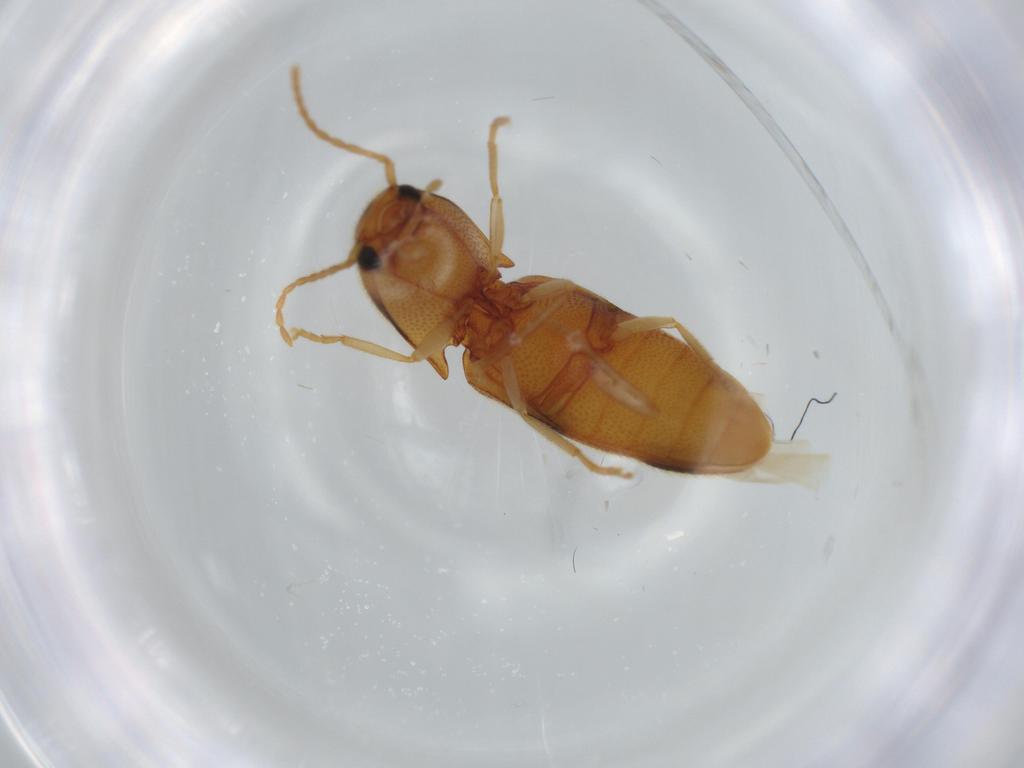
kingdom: Animalia
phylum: Arthropoda
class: Insecta
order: Coleoptera
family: Elateridae
